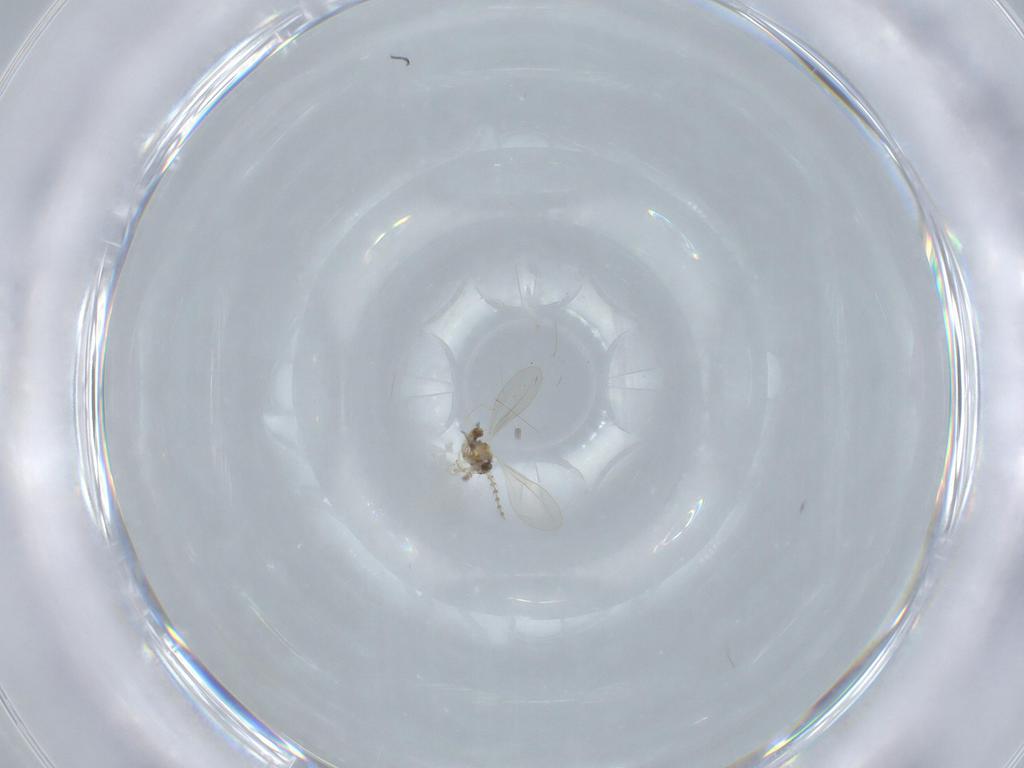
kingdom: Animalia
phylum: Arthropoda
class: Insecta
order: Diptera
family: Cecidomyiidae
